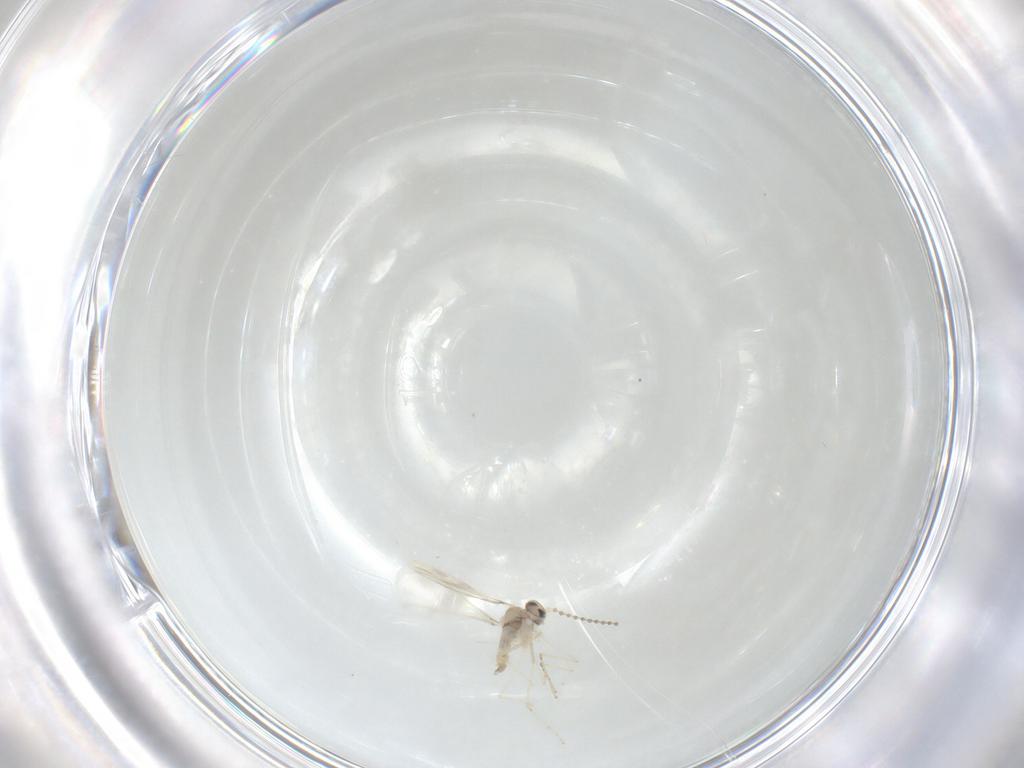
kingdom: Animalia
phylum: Arthropoda
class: Insecta
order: Diptera
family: Cecidomyiidae
